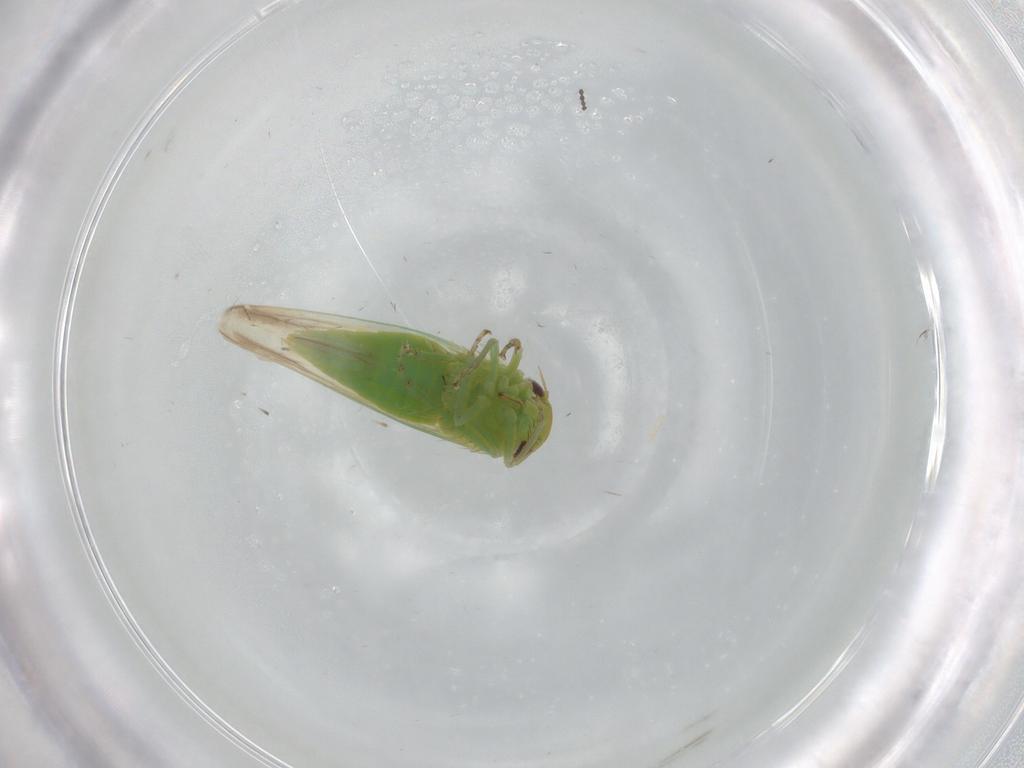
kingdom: Animalia
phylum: Arthropoda
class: Insecta
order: Hemiptera
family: Miridae
